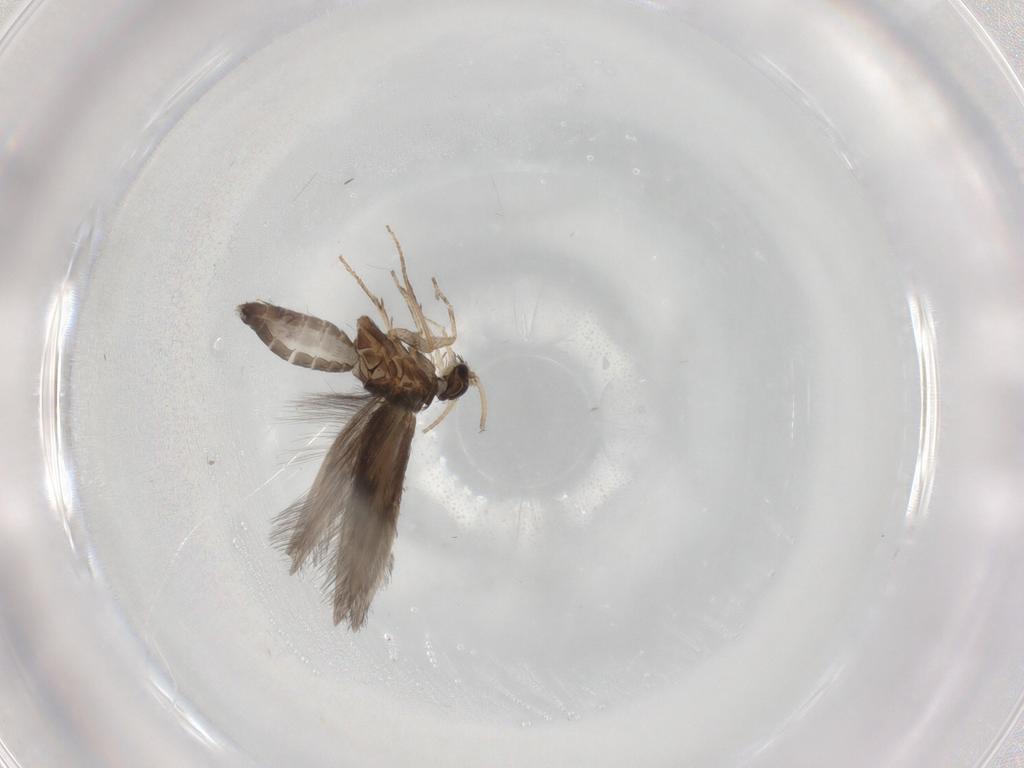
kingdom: Animalia
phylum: Arthropoda
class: Insecta
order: Trichoptera
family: Hydroptilidae
